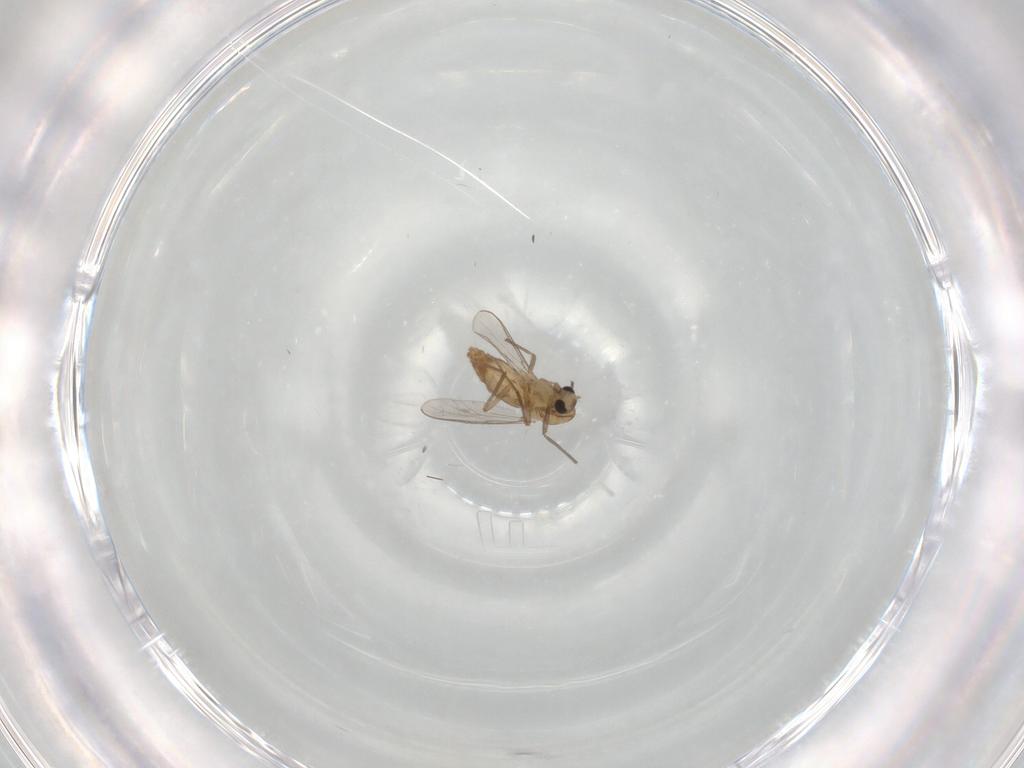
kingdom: Animalia
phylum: Arthropoda
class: Insecta
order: Diptera
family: Chironomidae
